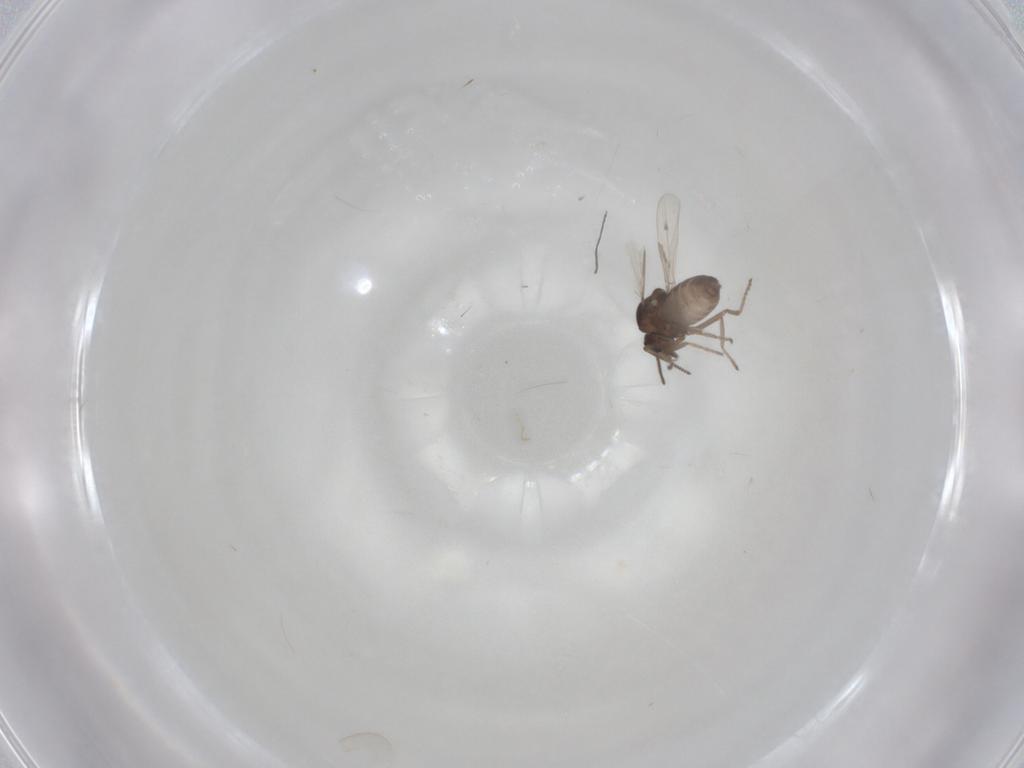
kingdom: Animalia
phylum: Arthropoda
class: Insecta
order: Diptera
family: Ceratopogonidae
